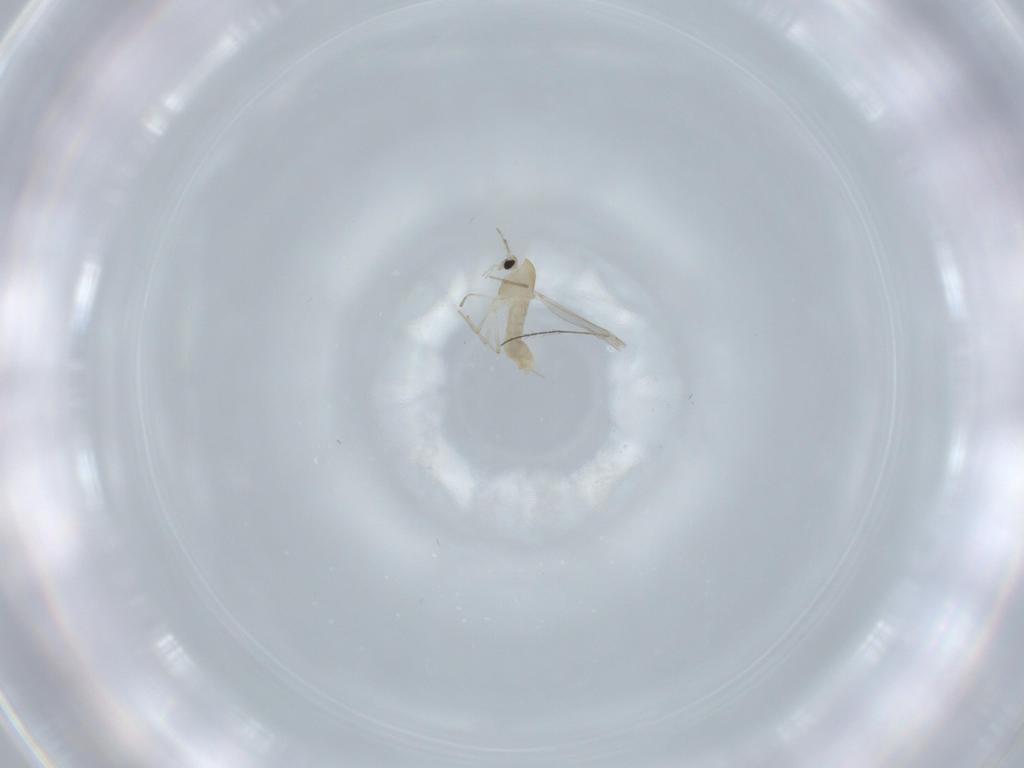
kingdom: Animalia
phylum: Arthropoda
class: Insecta
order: Diptera
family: Chironomidae
